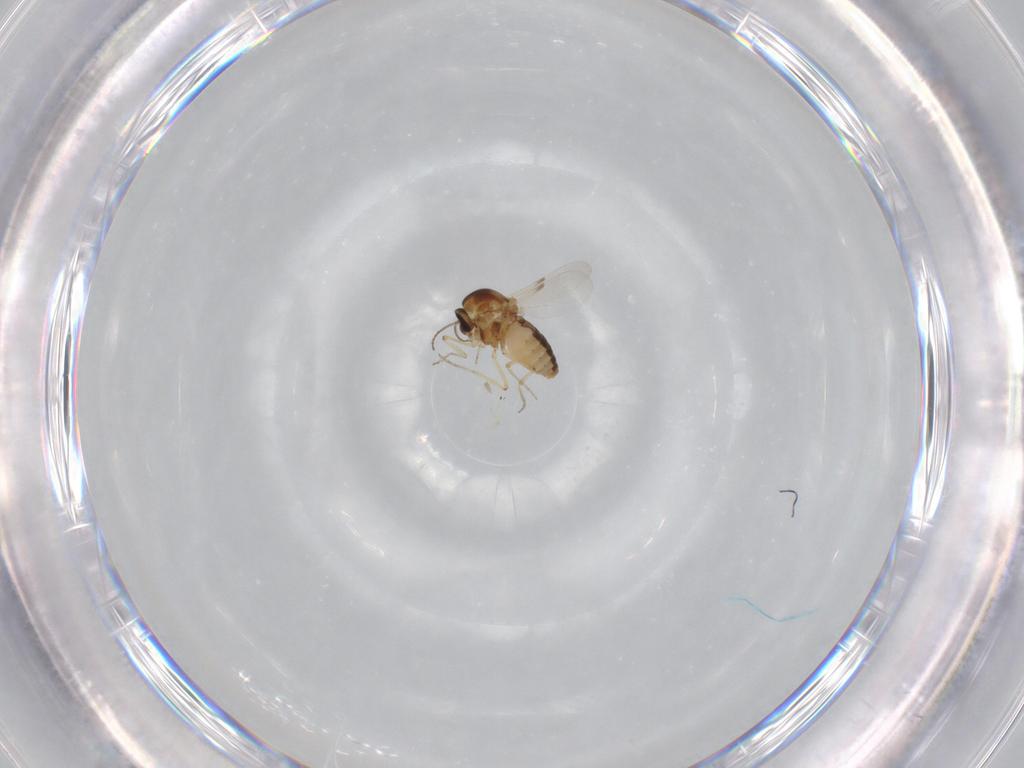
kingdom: Animalia
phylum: Arthropoda
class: Insecta
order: Diptera
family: Ceratopogonidae
